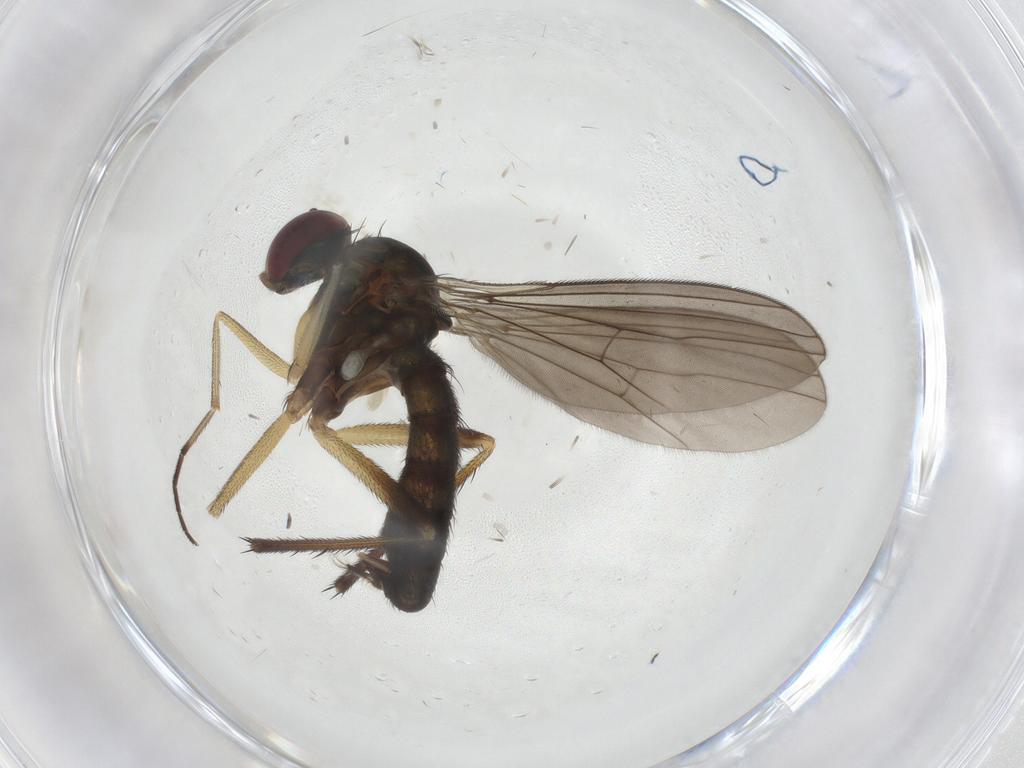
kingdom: Animalia
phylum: Arthropoda
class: Insecta
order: Diptera
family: Dolichopodidae
